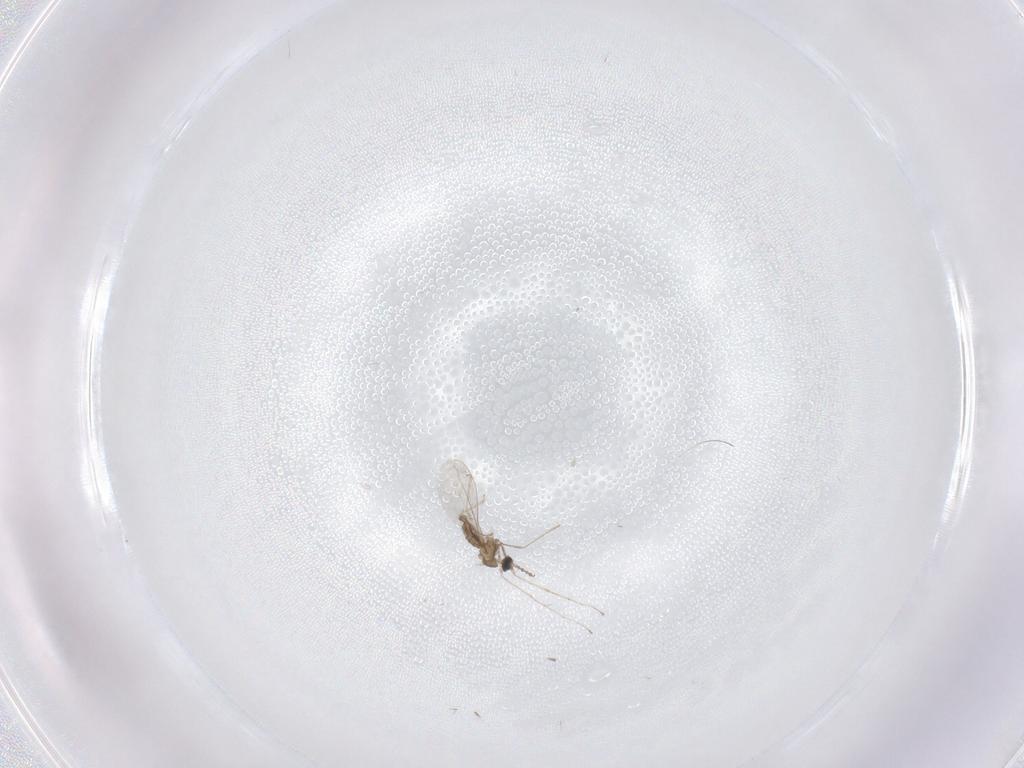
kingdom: Animalia
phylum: Arthropoda
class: Insecta
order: Diptera
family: Cecidomyiidae
